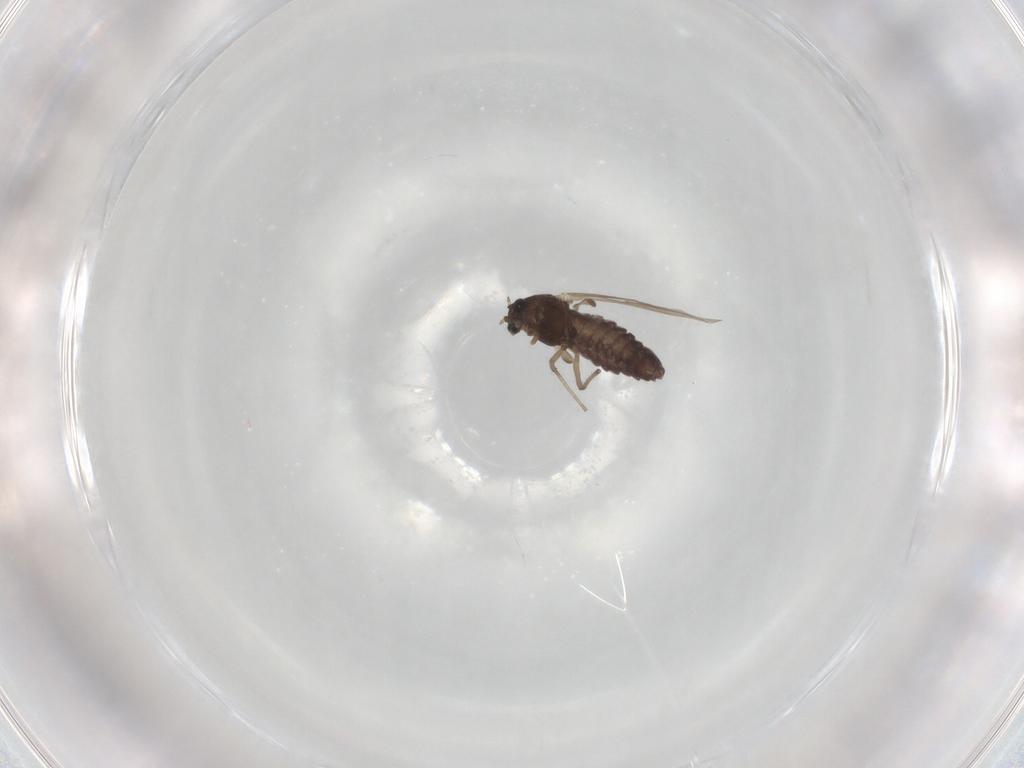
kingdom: Animalia
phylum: Arthropoda
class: Insecta
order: Diptera
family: Chironomidae
